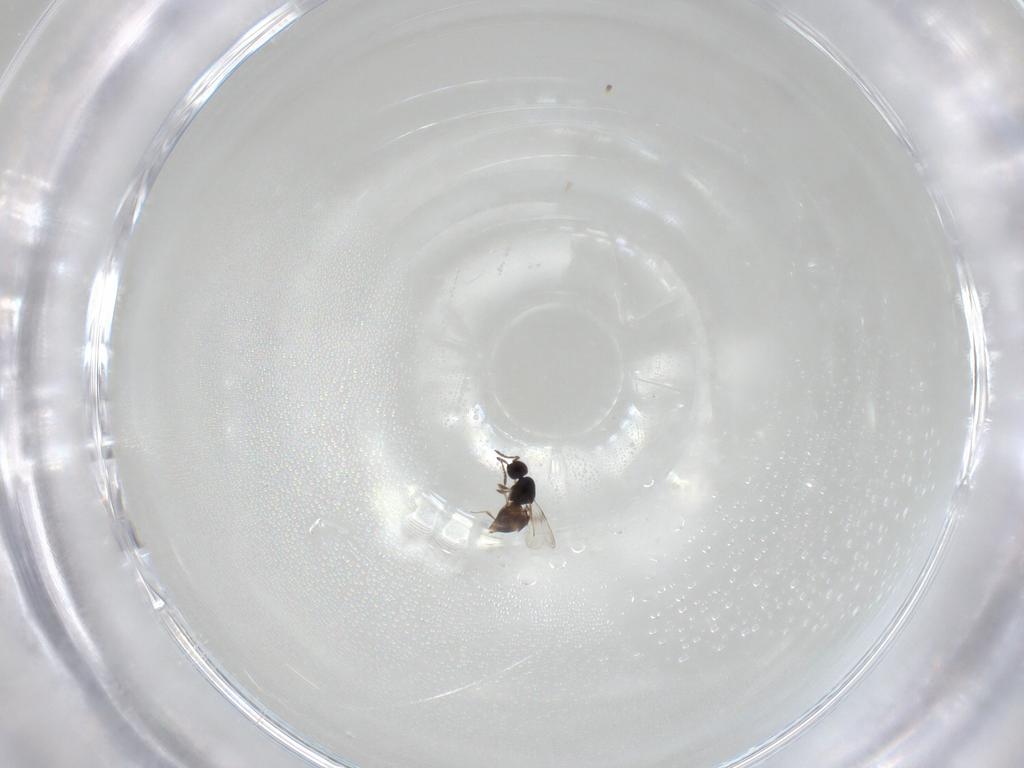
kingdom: Animalia
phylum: Arthropoda
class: Insecta
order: Hymenoptera
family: Ceraphronidae
